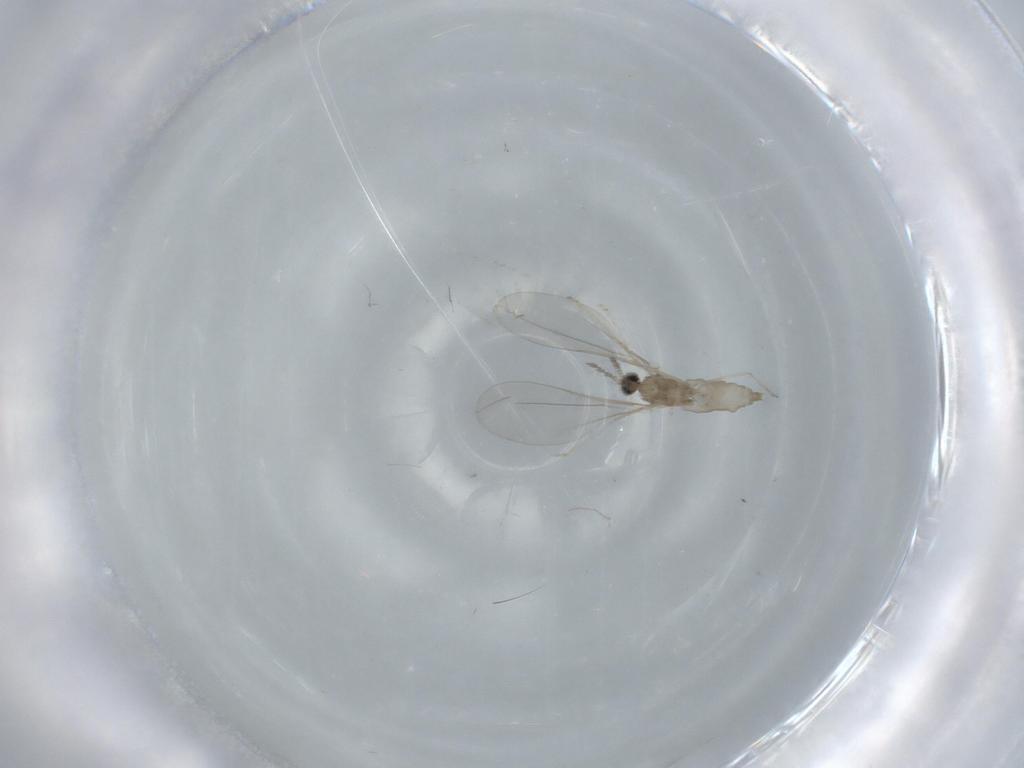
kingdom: Animalia
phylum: Arthropoda
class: Insecta
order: Diptera
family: Cecidomyiidae
